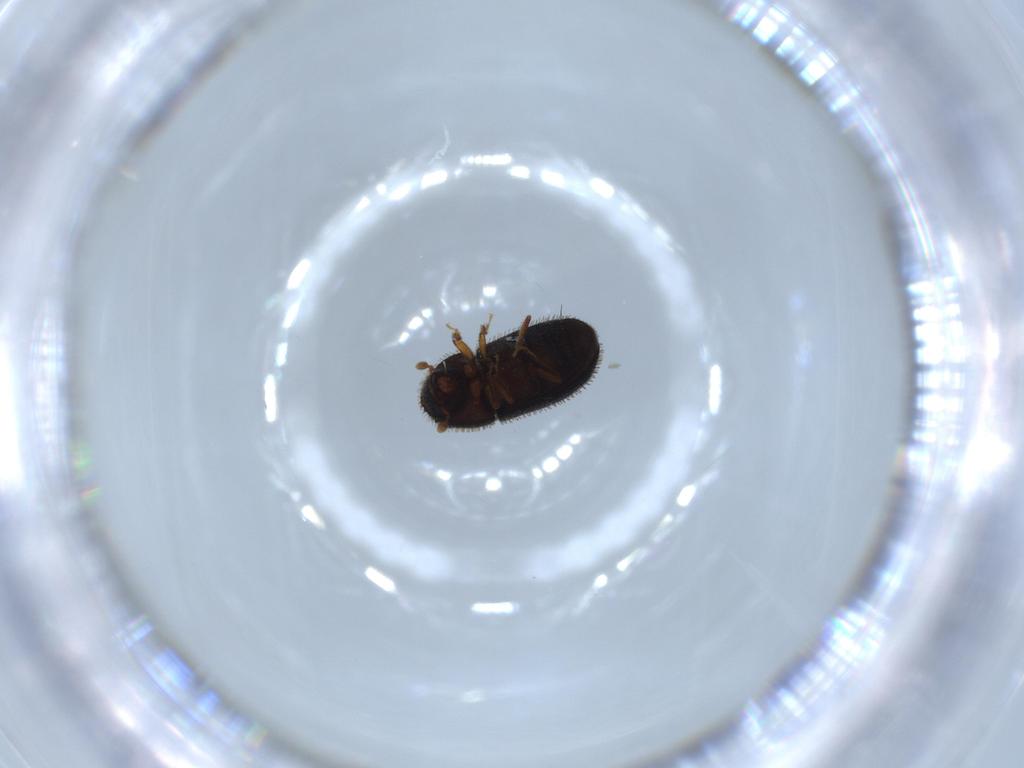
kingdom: Animalia
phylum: Arthropoda
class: Insecta
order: Coleoptera
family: Curculionidae
